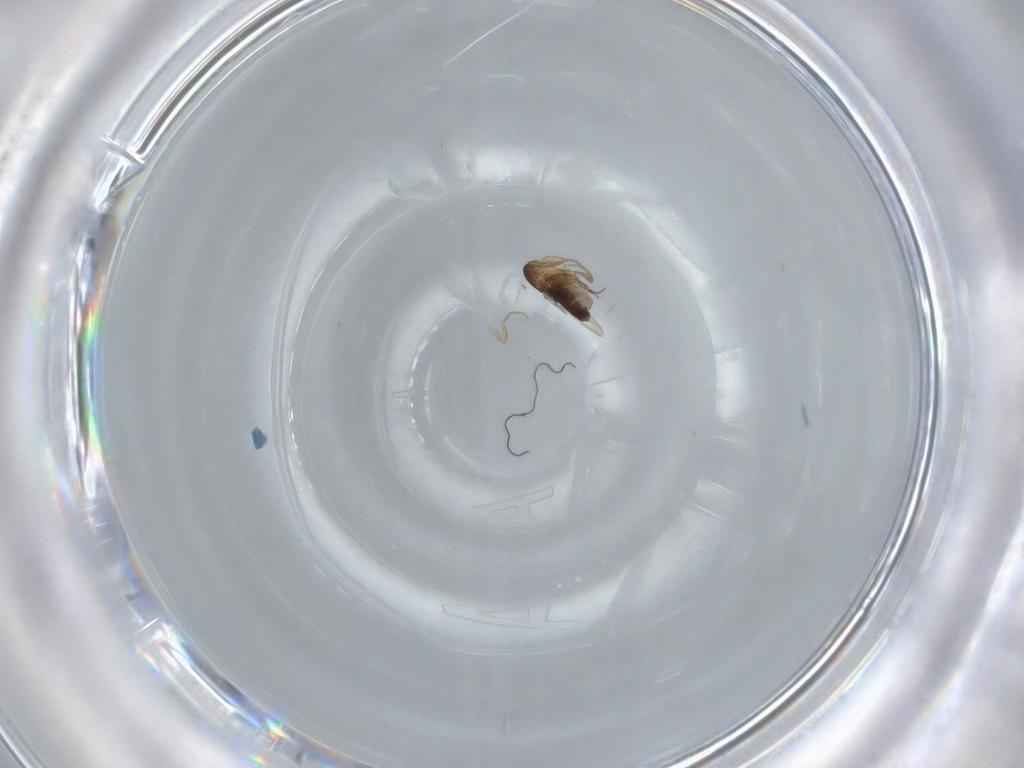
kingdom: Animalia
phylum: Arthropoda
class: Insecta
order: Diptera
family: Phoridae
